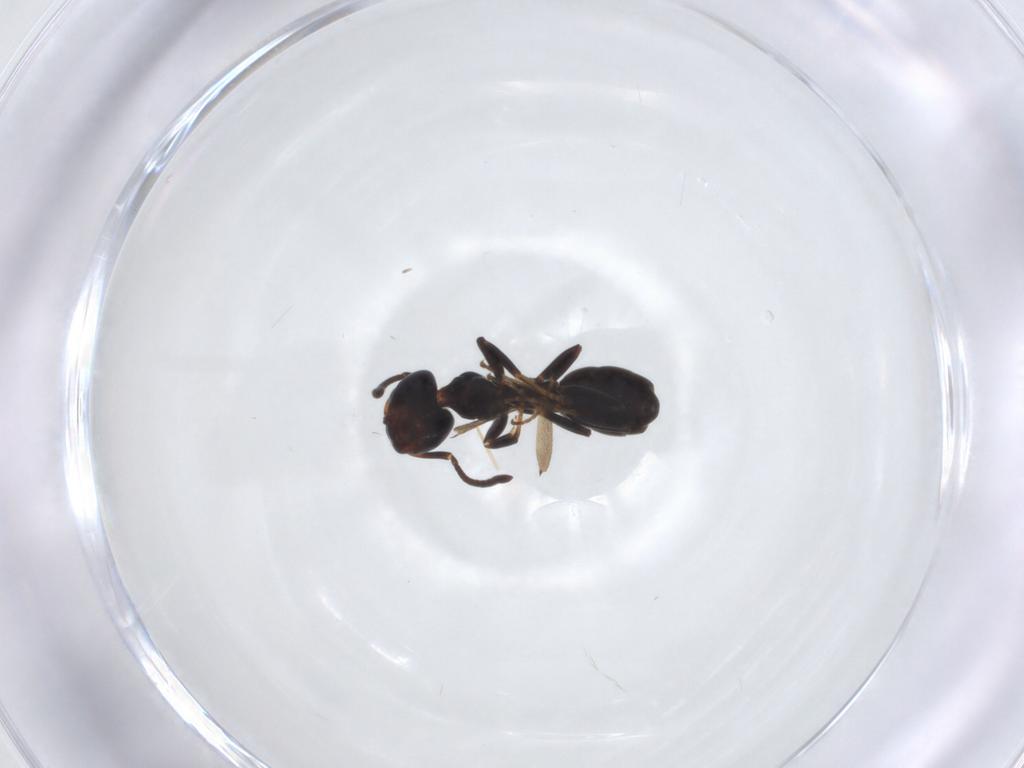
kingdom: Animalia
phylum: Arthropoda
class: Insecta
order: Hymenoptera
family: Formicidae
